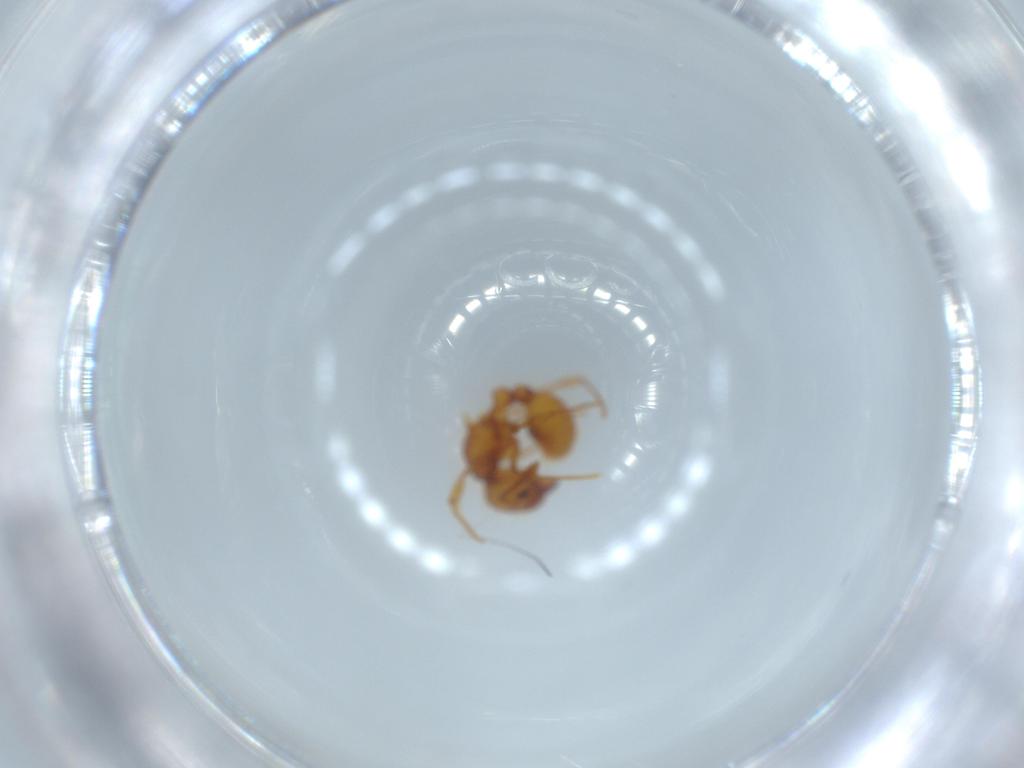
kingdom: Animalia
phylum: Arthropoda
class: Insecta
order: Hymenoptera
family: Formicidae
